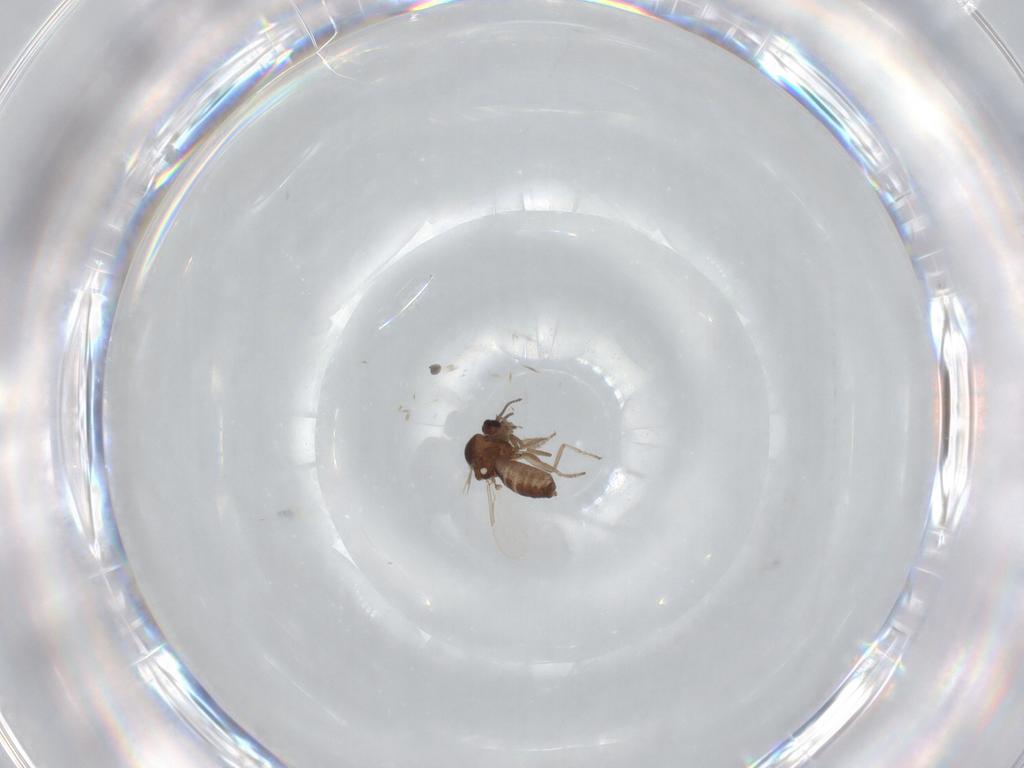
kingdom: Animalia
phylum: Arthropoda
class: Insecta
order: Diptera
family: Ceratopogonidae
